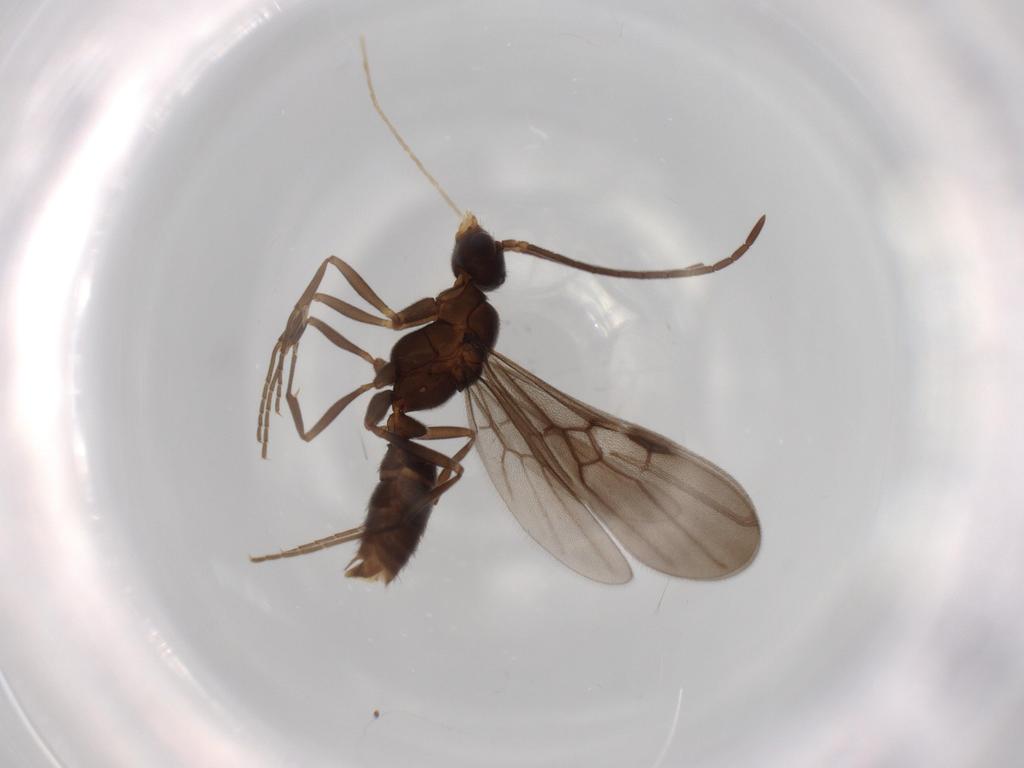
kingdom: Animalia
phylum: Arthropoda
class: Insecta
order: Hymenoptera
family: Formicidae
